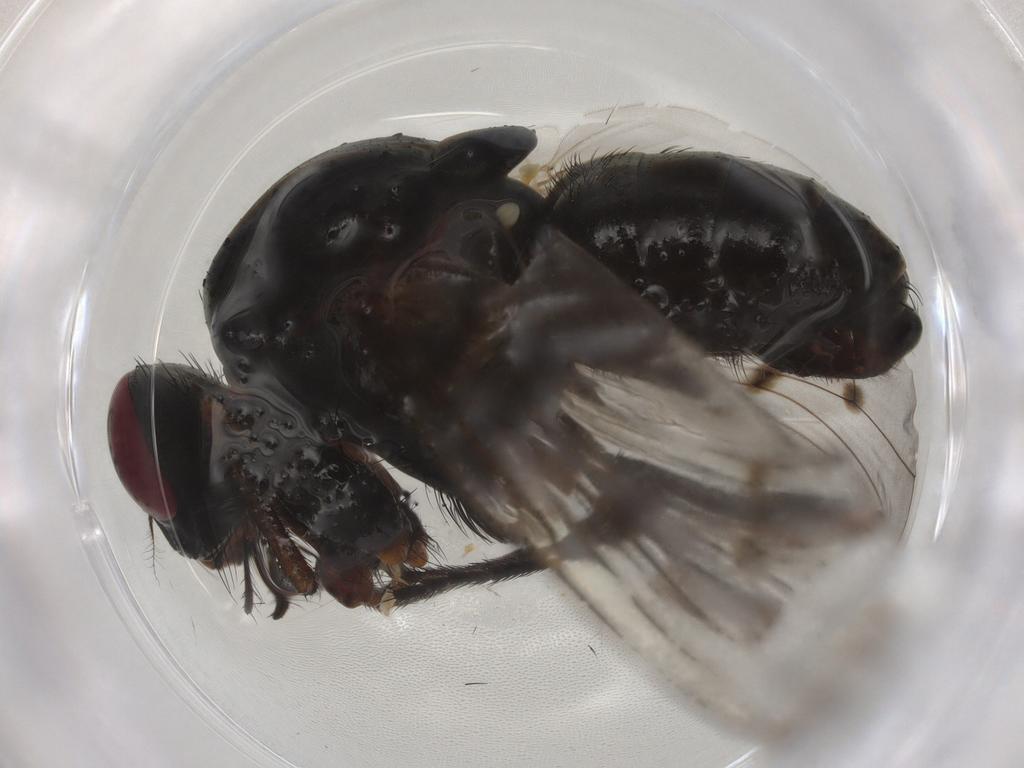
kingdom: Animalia
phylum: Arthropoda
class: Insecta
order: Diptera
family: Muscidae
